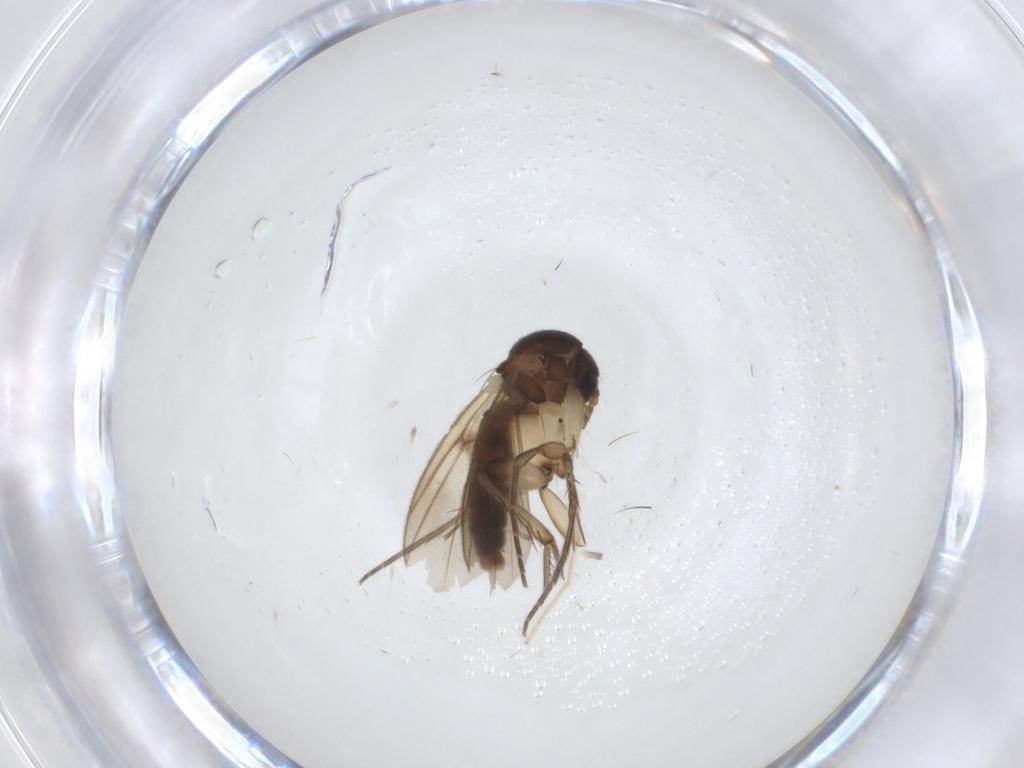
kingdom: Animalia
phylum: Arthropoda
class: Insecta
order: Diptera
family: Mycetophilidae
